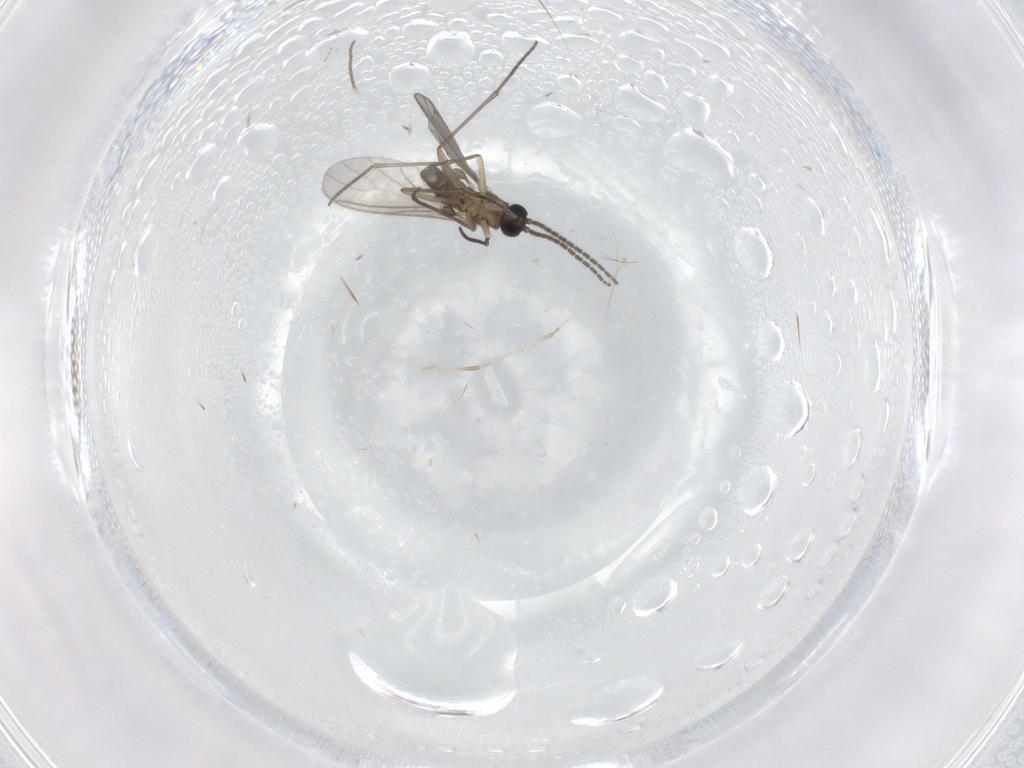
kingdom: Animalia
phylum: Arthropoda
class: Insecta
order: Diptera
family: Sciaridae
